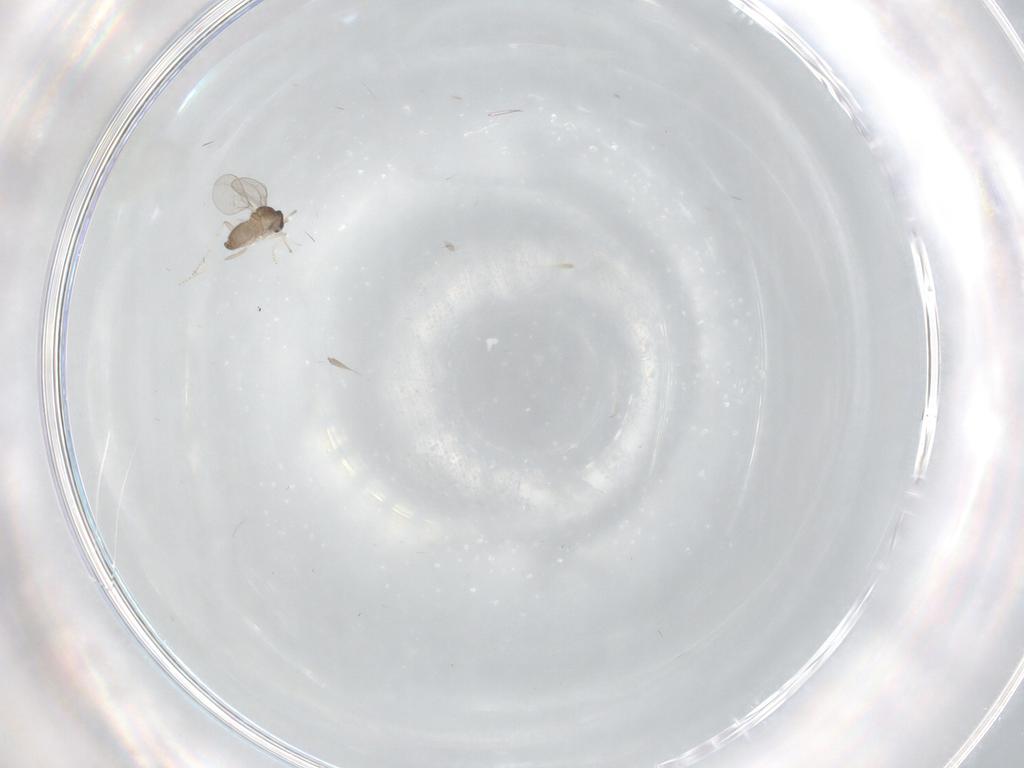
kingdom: Animalia
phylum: Arthropoda
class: Insecta
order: Diptera
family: Cecidomyiidae
